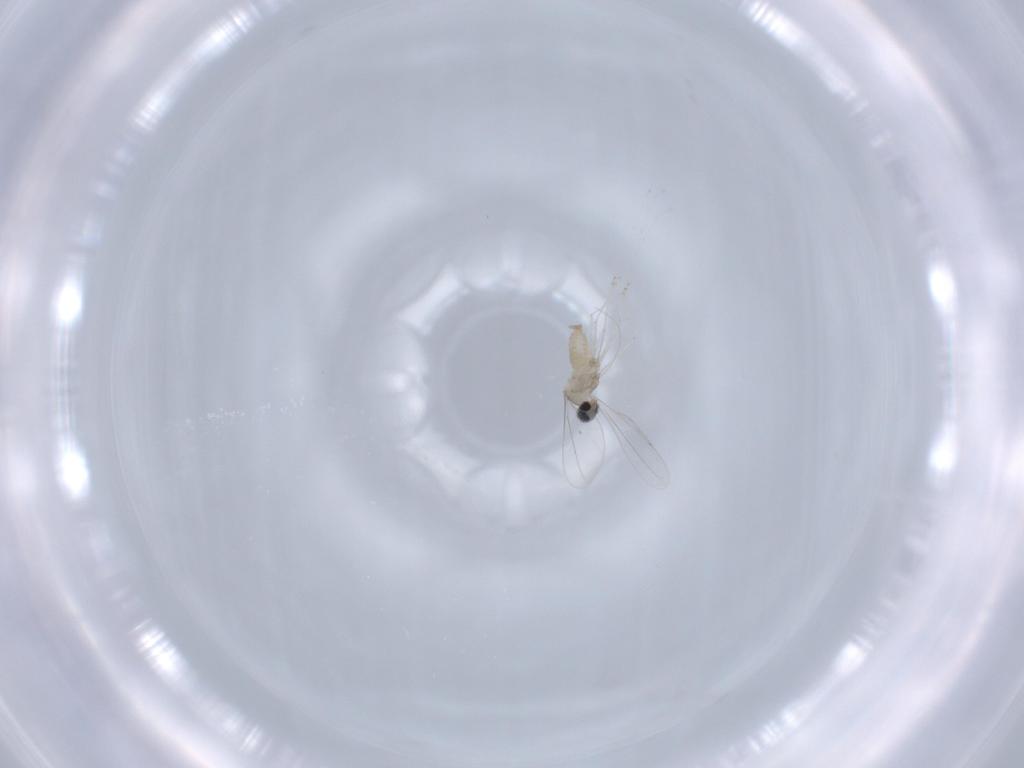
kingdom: Animalia
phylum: Arthropoda
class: Insecta
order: Diptera
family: Cecidomyiidae
